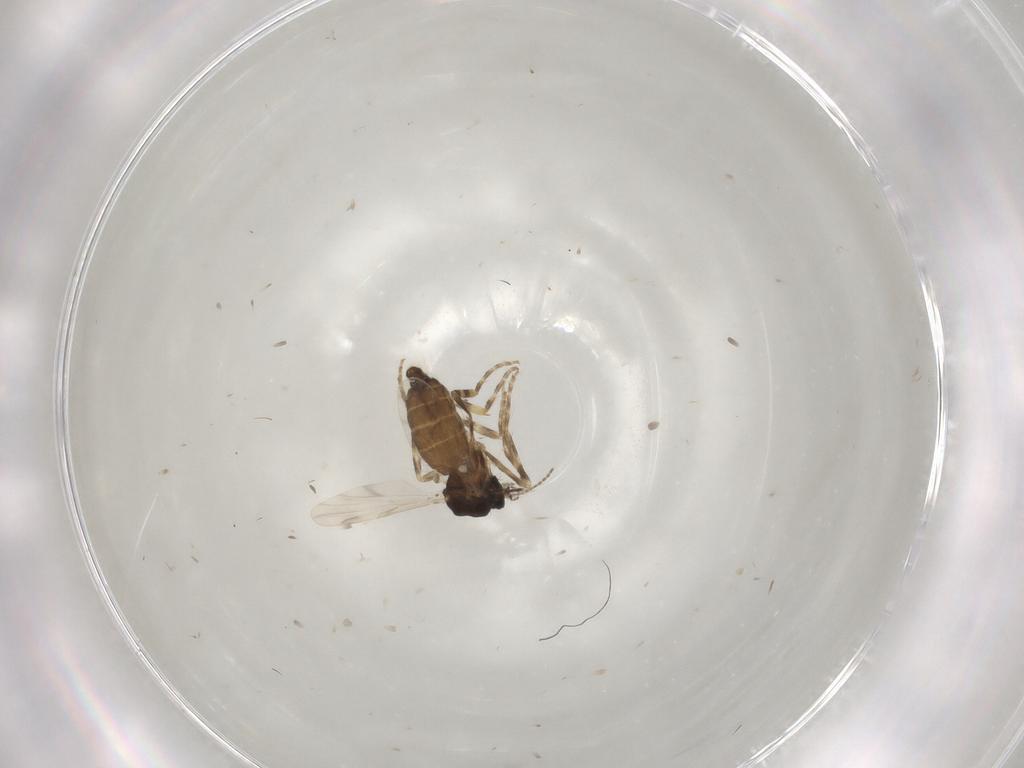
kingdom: Animalia
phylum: Arthropoda
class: Insecta
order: Diptera
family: Ceratopogonidae
